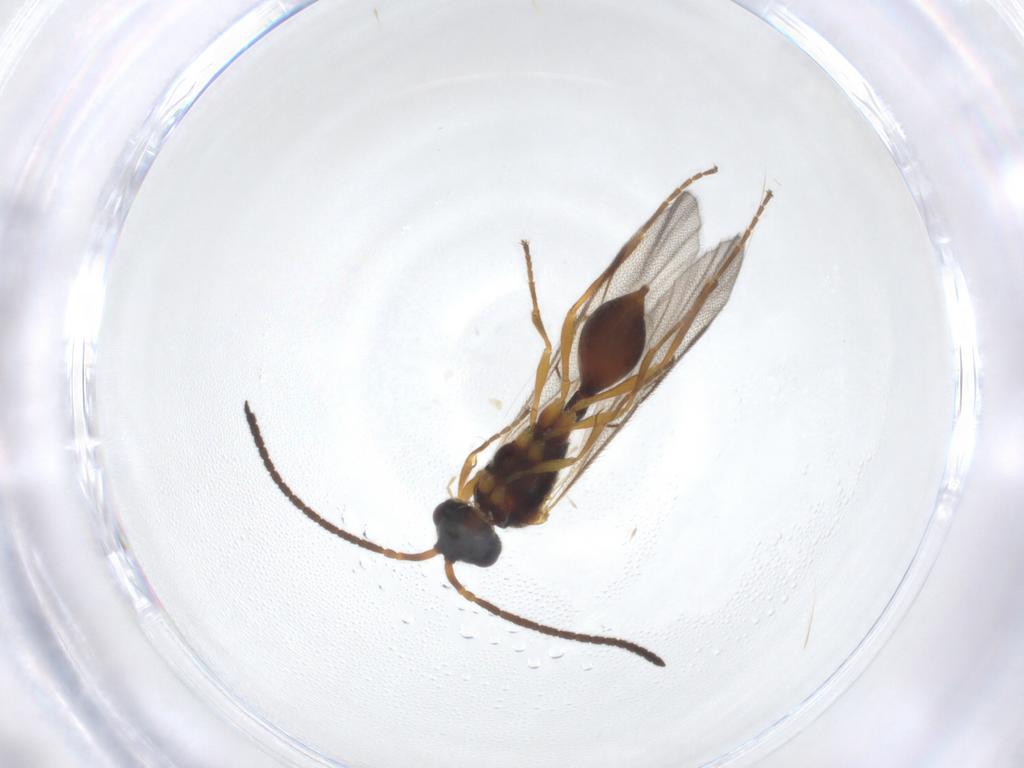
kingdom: Animalia
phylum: Arthropoda
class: Insecta
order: Hymenoptera
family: Diapriidae
